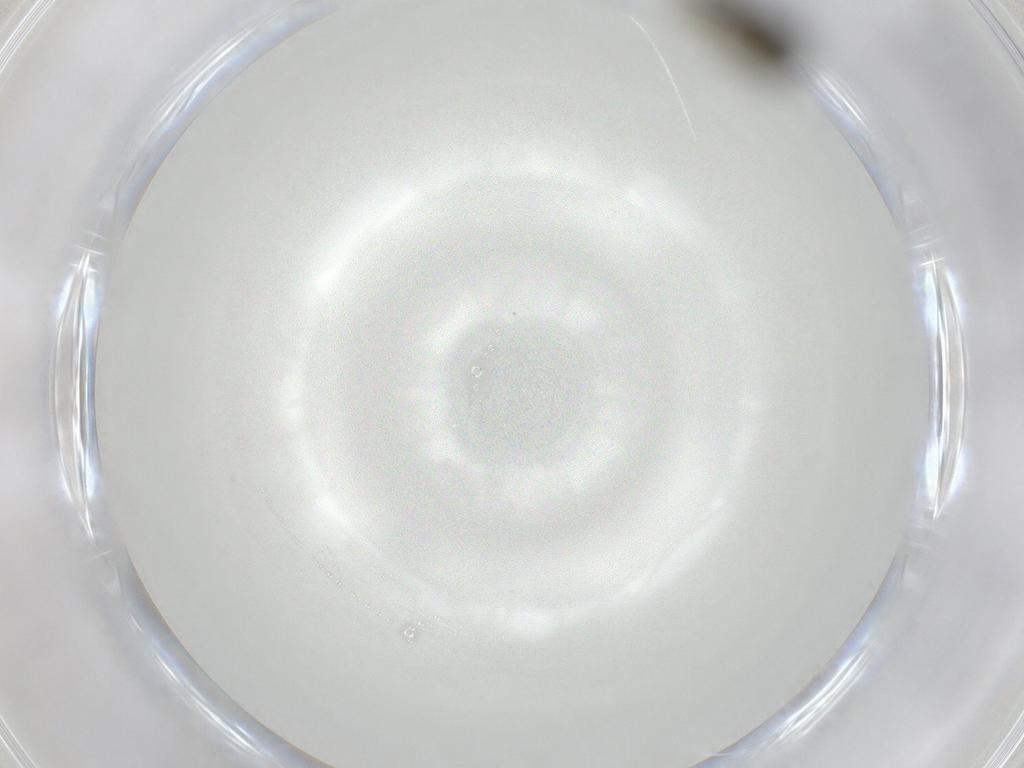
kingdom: Animalia
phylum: Arthropoda
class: Insecta
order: Diptera
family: Ceratopogonidae
